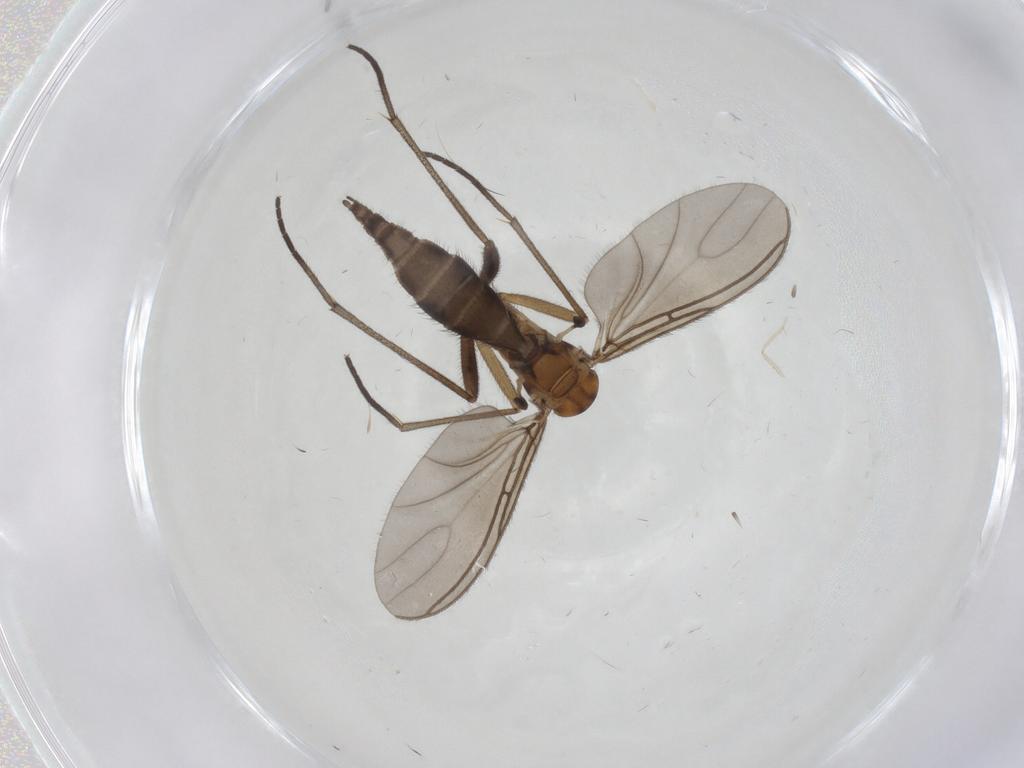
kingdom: Animalia
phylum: Arthropoda
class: Insecta
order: Diptera
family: Sciaridae
